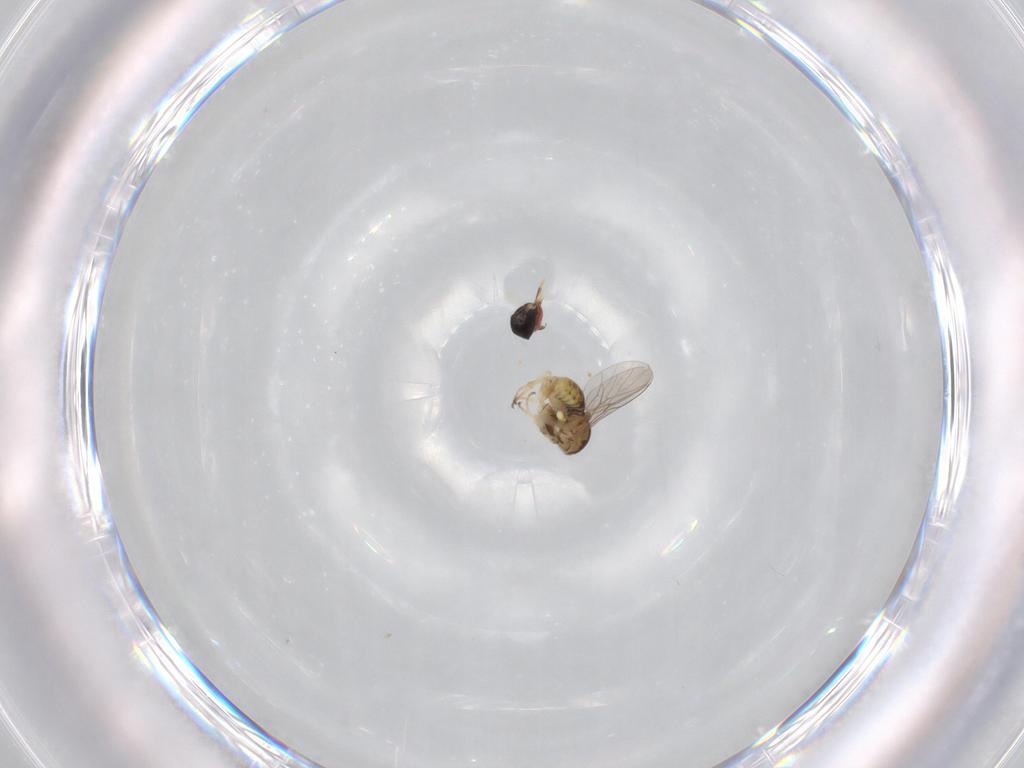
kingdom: Animalia
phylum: Arthropoda
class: Insecta
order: Diptera
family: Bombyliidae
